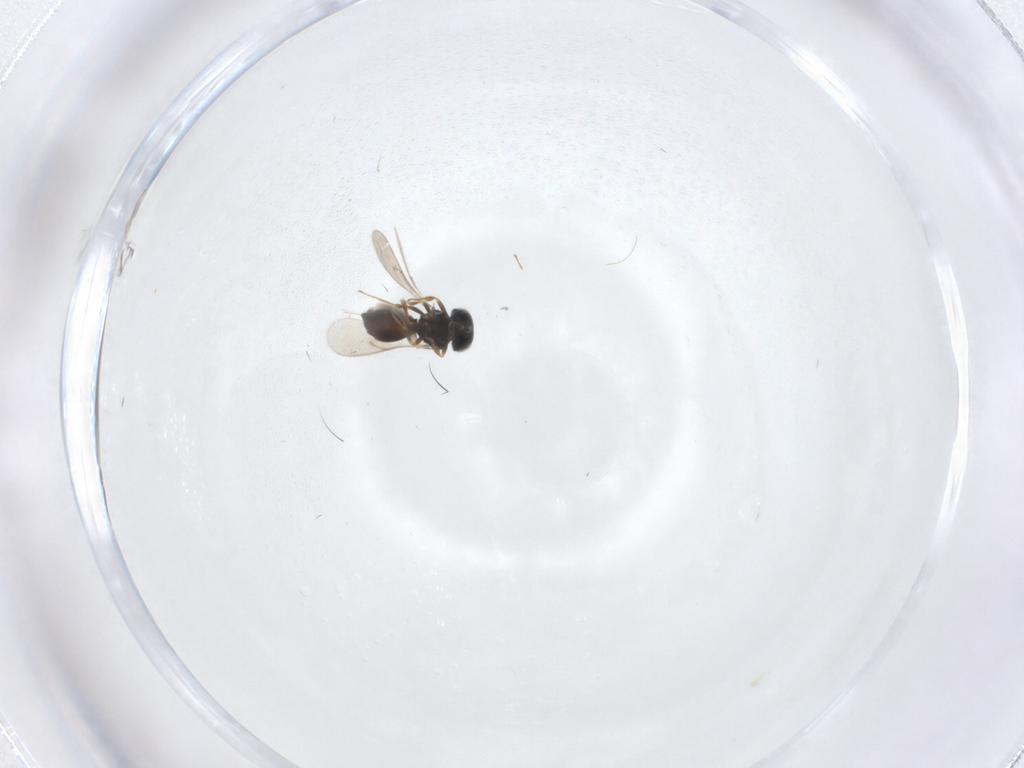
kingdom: Animalia
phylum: Arthropoda
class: Insecta
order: Hymenoptera
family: Scelionidae
